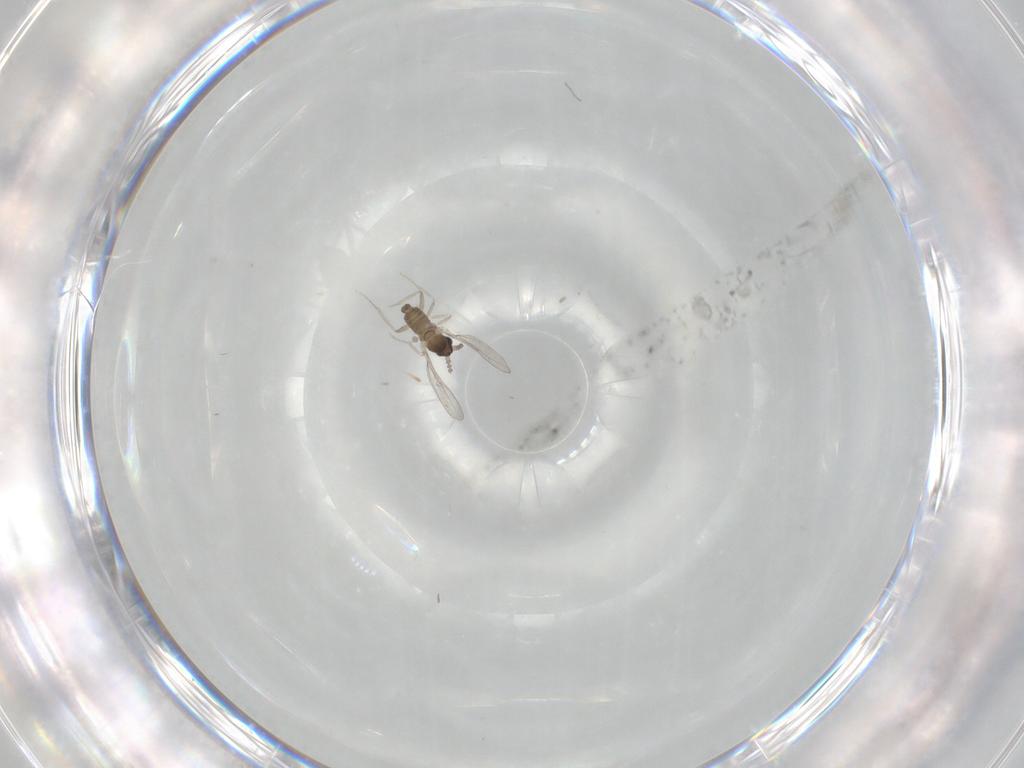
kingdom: Animalia
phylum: Arthropoda
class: Insecta
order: Diptera
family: Cecidomyiidae
